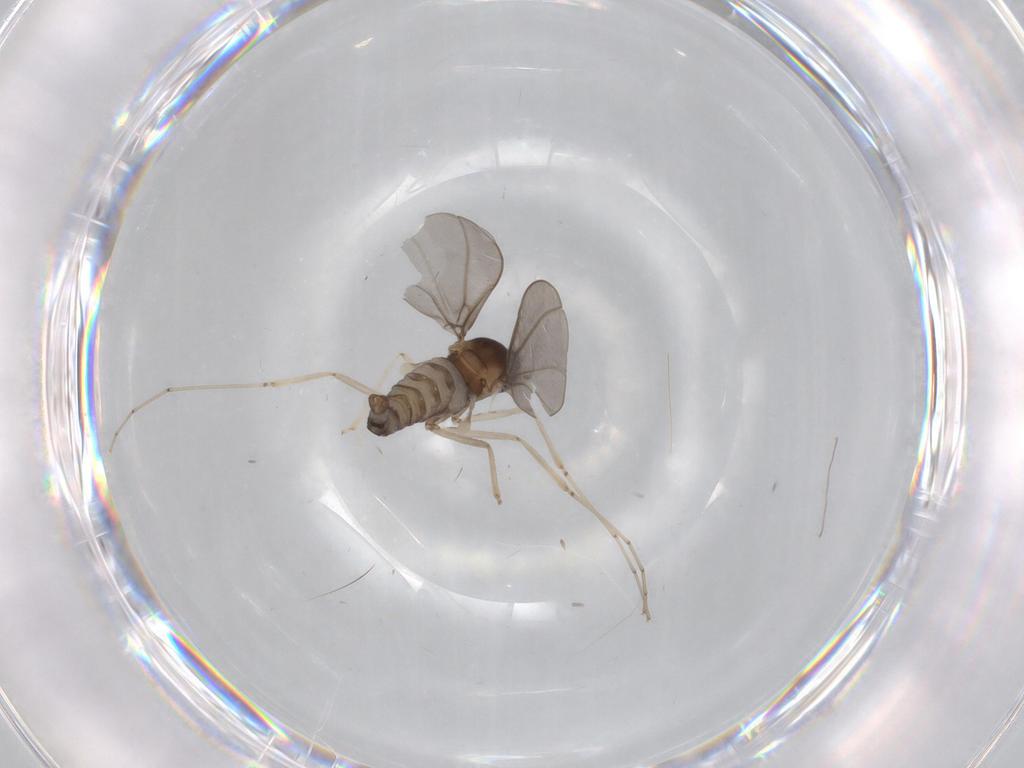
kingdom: Animalia
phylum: Arthropoda
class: Insecta
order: Diptera
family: Cecidomyiidae
